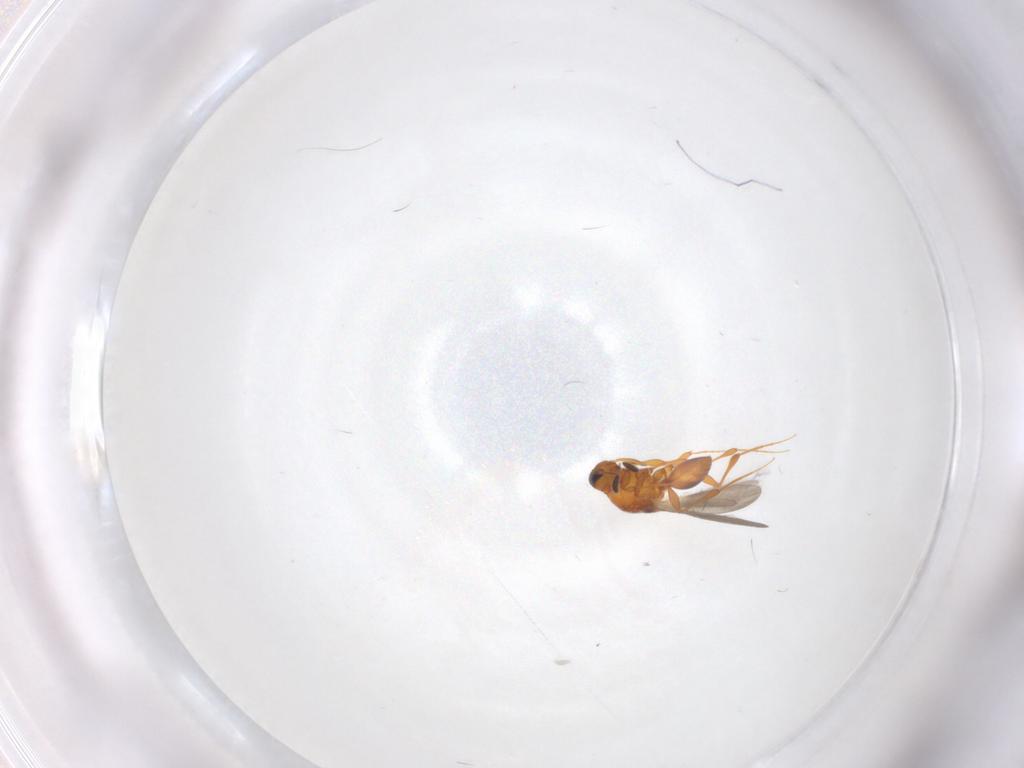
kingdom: Animalia
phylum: Arthropoda
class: Insecta
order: Hymenoptera
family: Platygastridae
